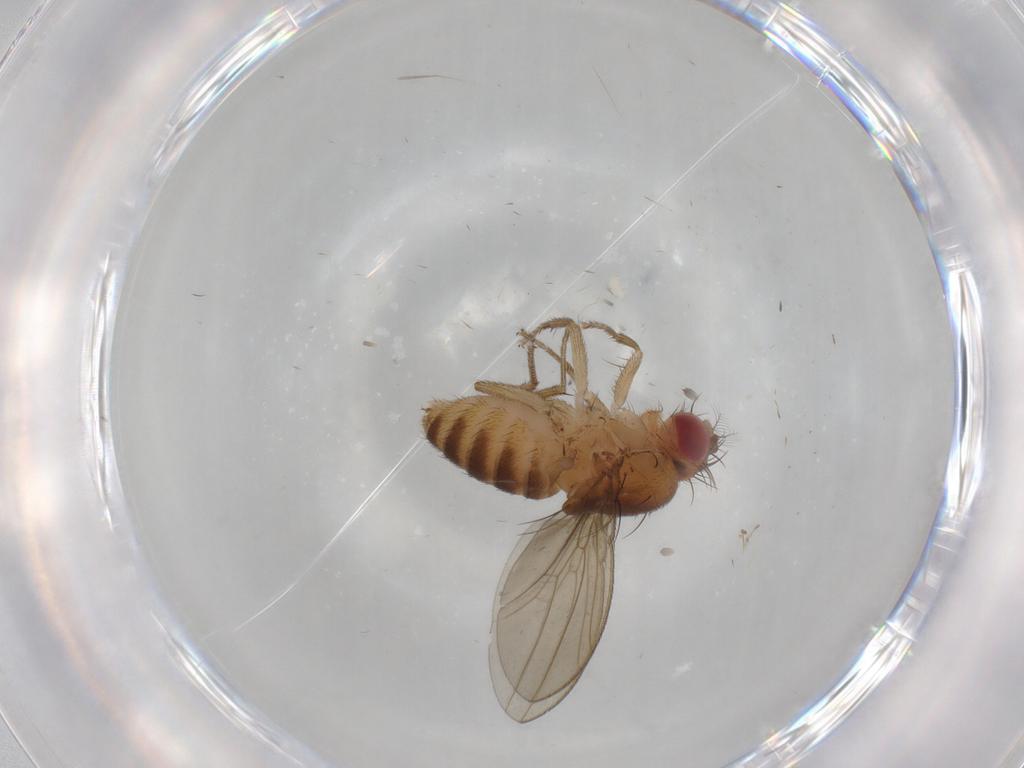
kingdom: Animalia
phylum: Arthropoda
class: Insecta
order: Diptera
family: Drosophilidae
